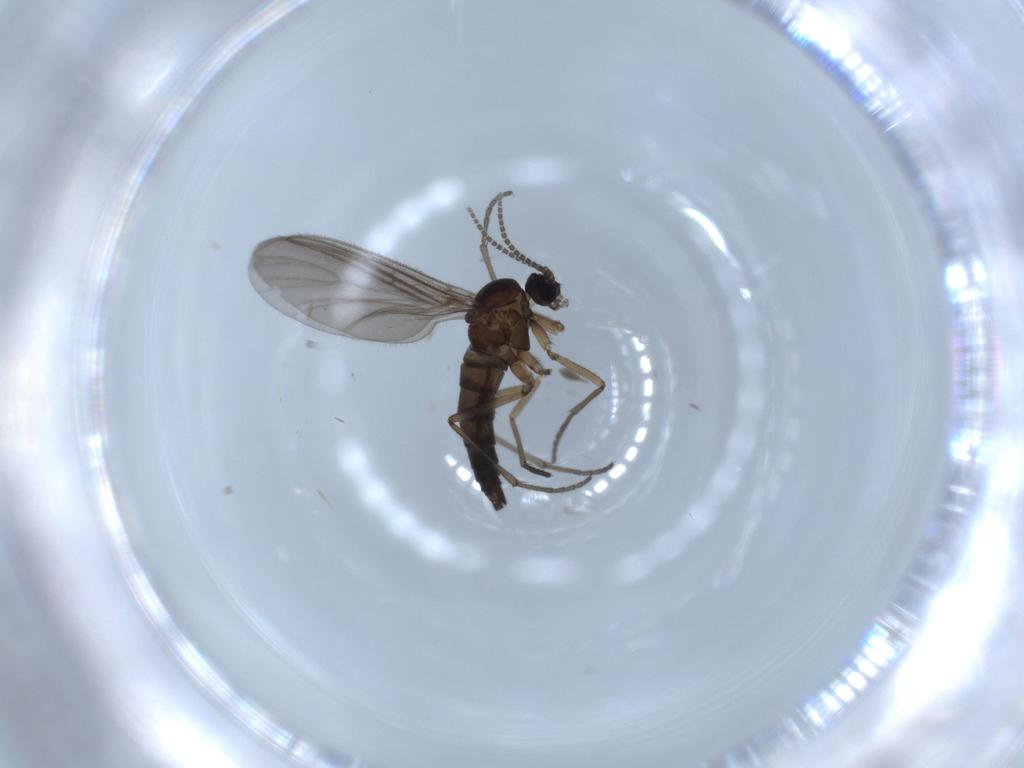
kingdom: Animalia
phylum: Arthropoda
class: Insecta
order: Diptera
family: Sciaridae
